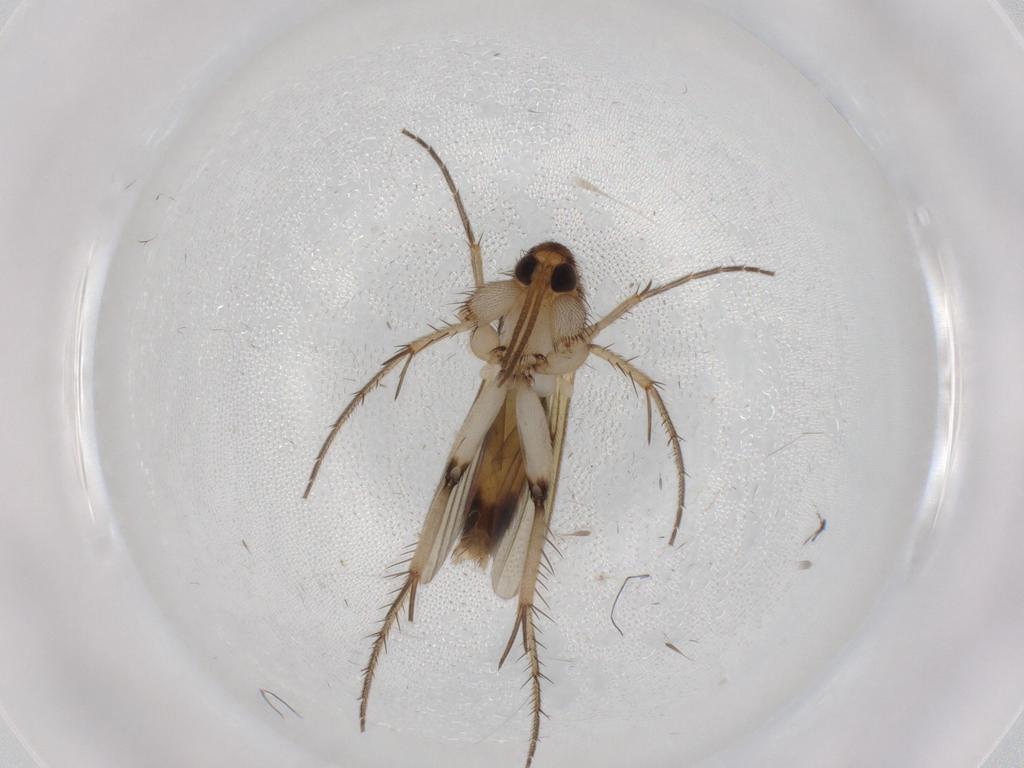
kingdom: Animalia
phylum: Arthropoda
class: Insecta
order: Diptera
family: Mycetophilidae
